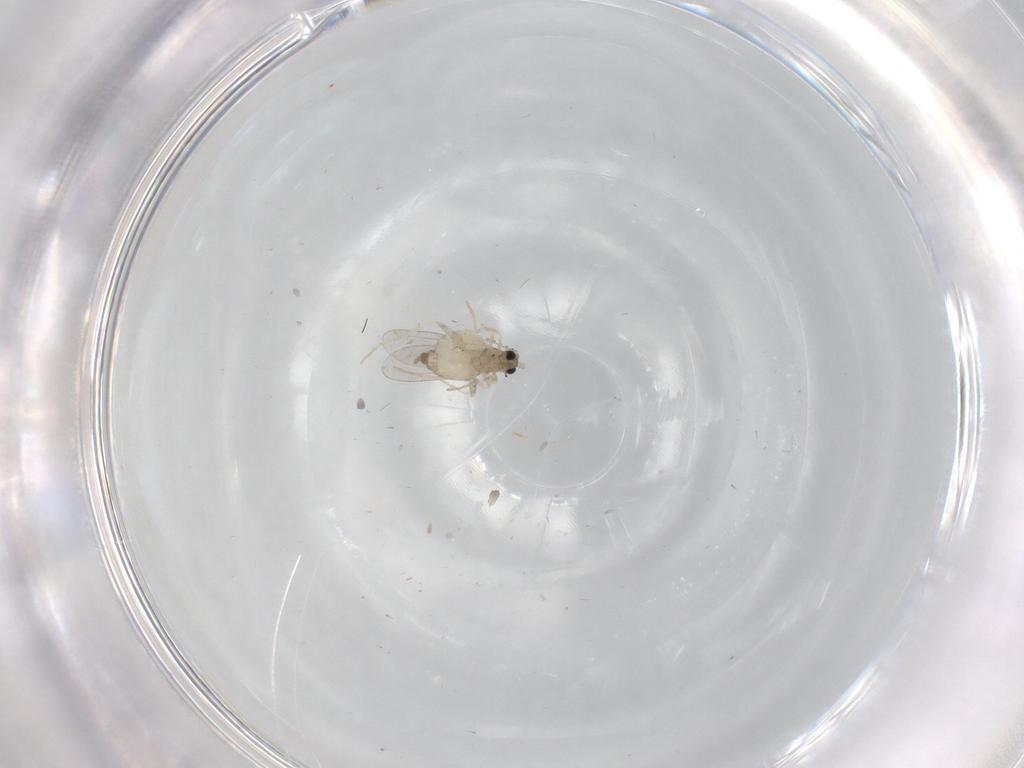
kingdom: Animalia
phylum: Arthropoda
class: Insecta
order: Diptera
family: Cecidomyiidae
